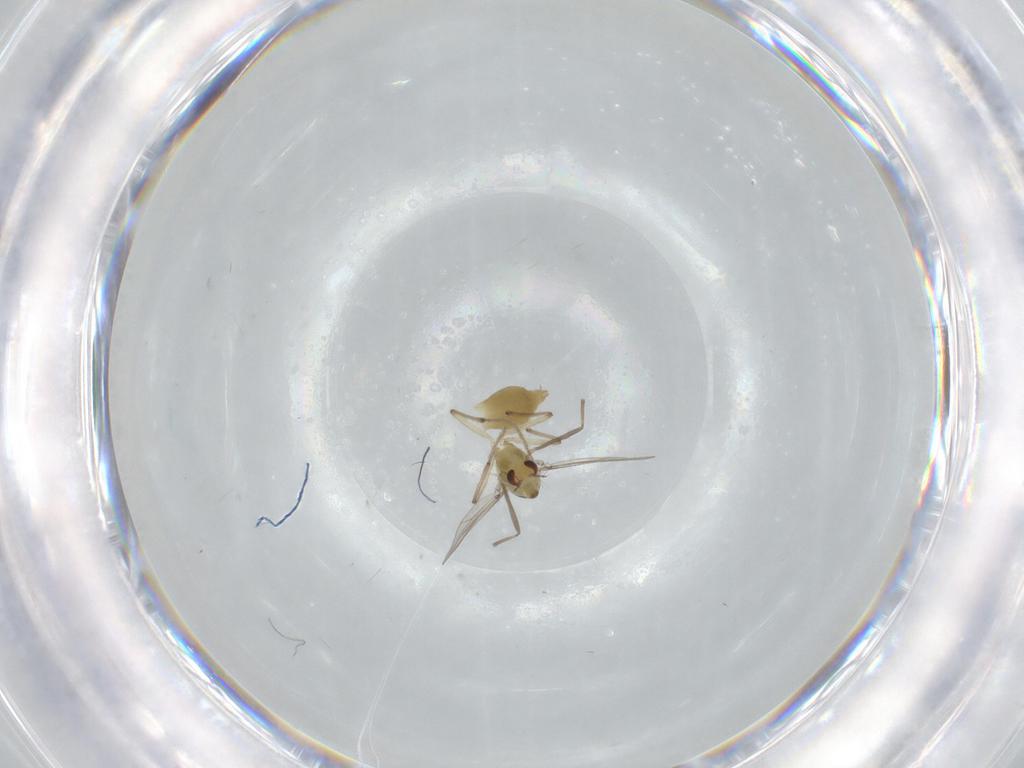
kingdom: Animalia
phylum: Arthropoda
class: Insecta
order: Diptera
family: Chironomidae
